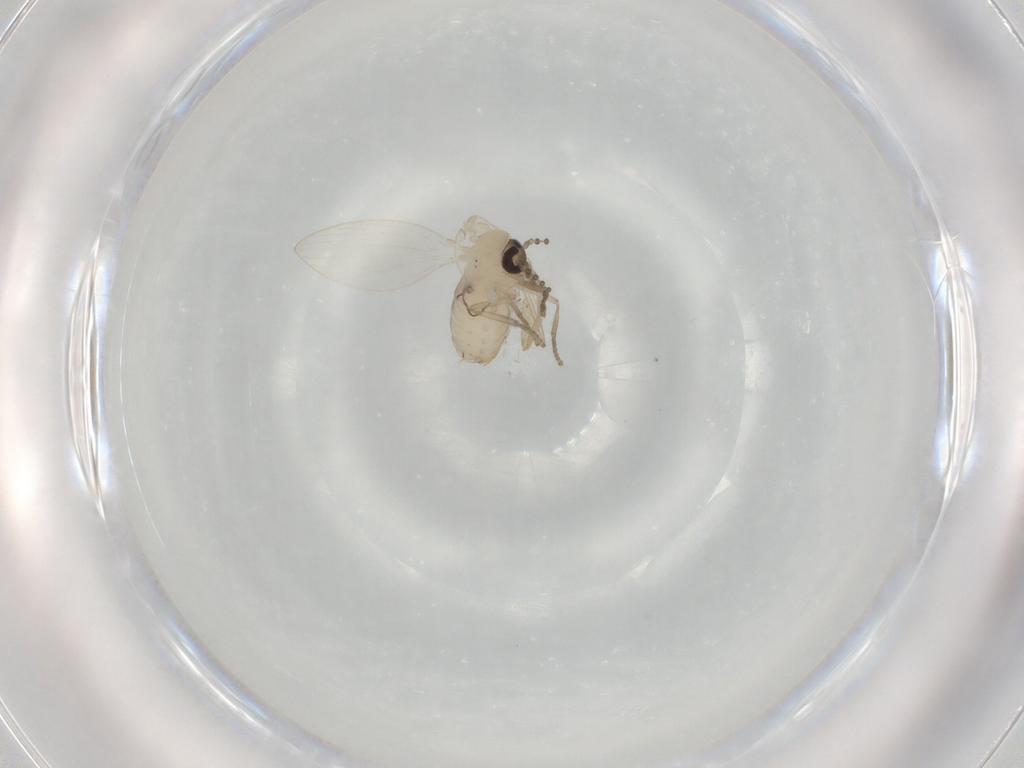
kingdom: Animalia
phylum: Arthropoda
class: Insecta
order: Diptera
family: Psychodidae
